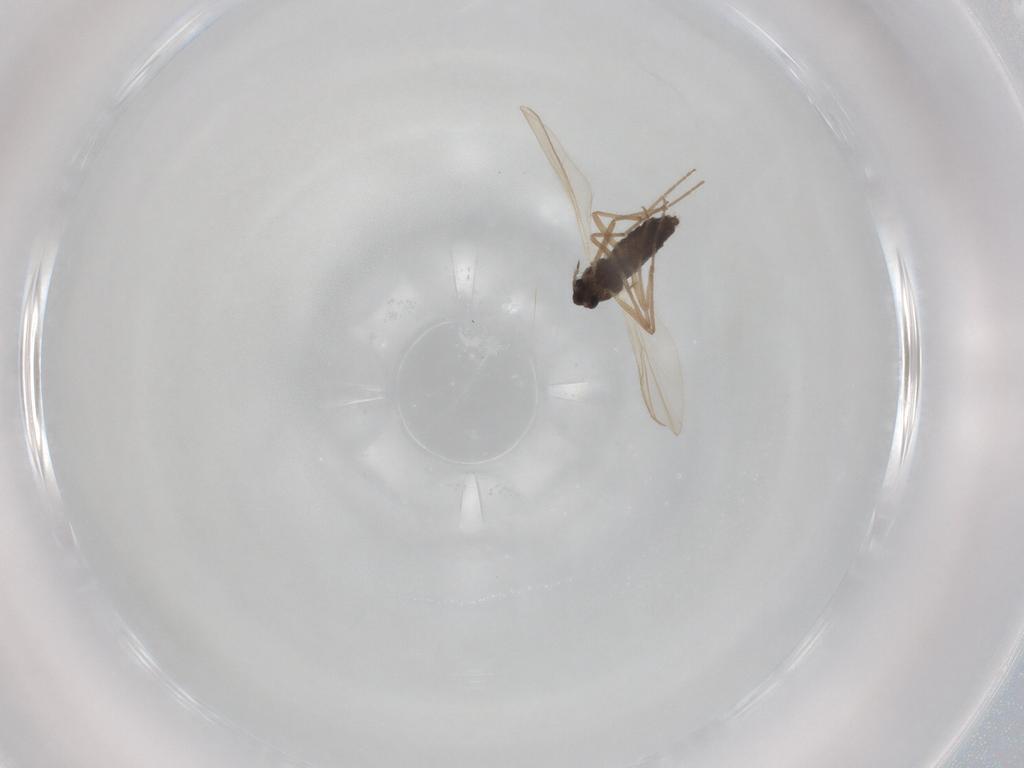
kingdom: Animalia
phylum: Arthropoda
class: Insecta
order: Diptera
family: Chironomidae
